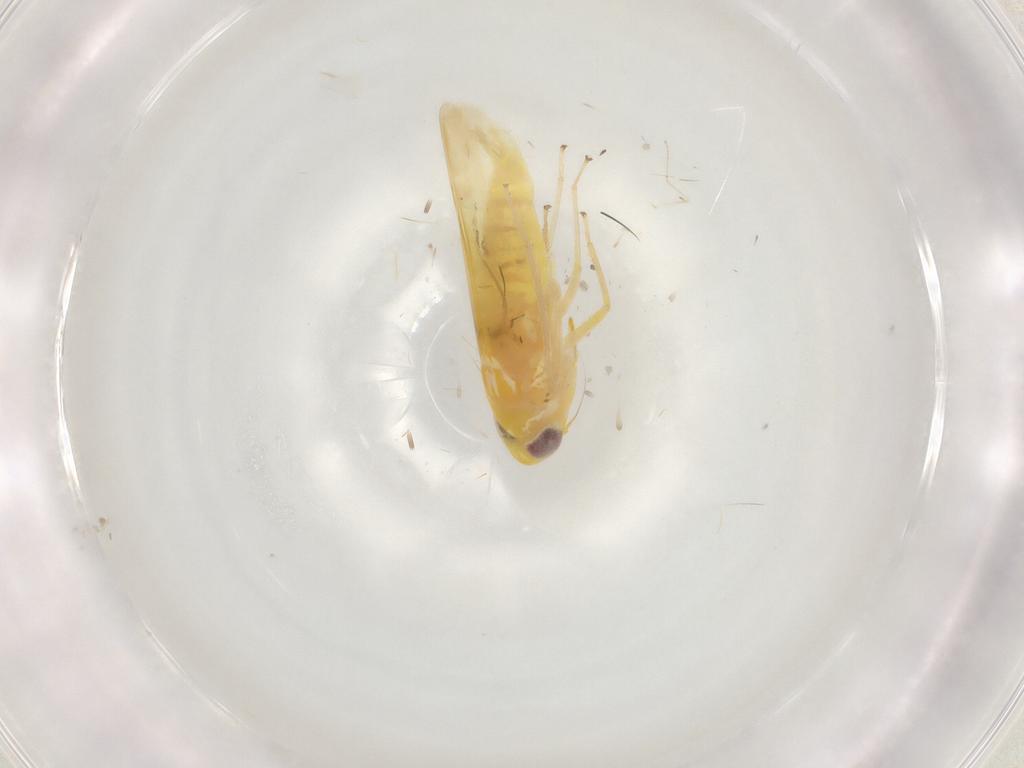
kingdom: Animalia
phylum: Arthropoda
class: Insecta
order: Hemiptera
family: Cicadellidae
